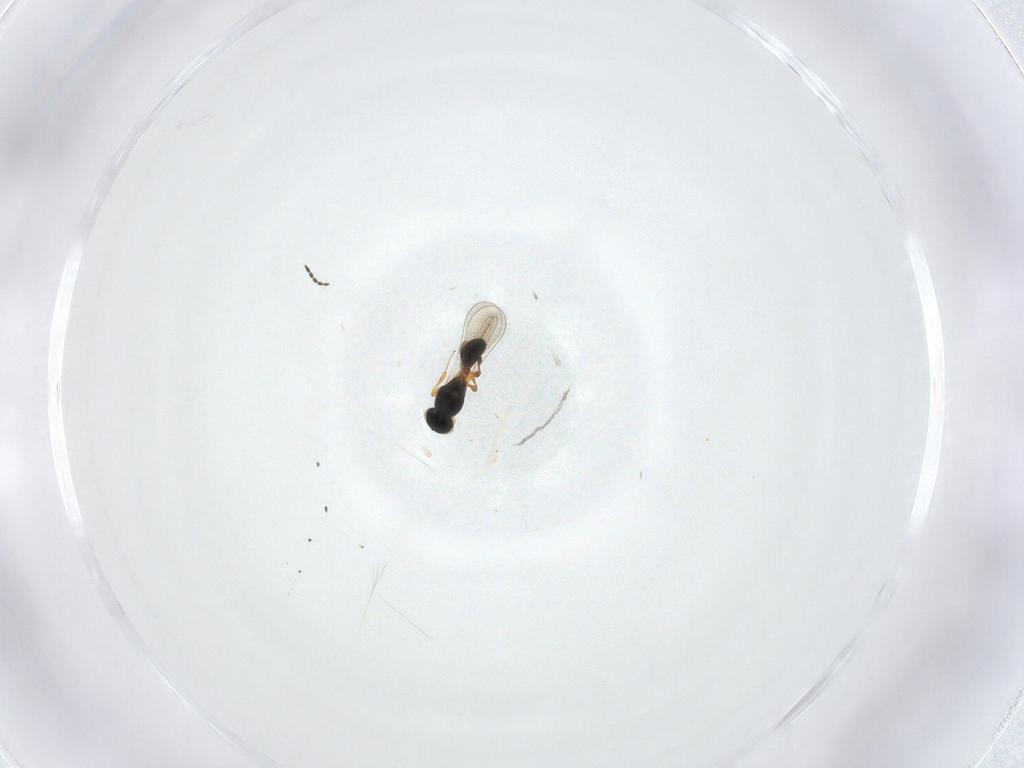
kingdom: Animalia
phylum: Arthropoda
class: Insecta
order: Hymenoptera
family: Platygastridae
